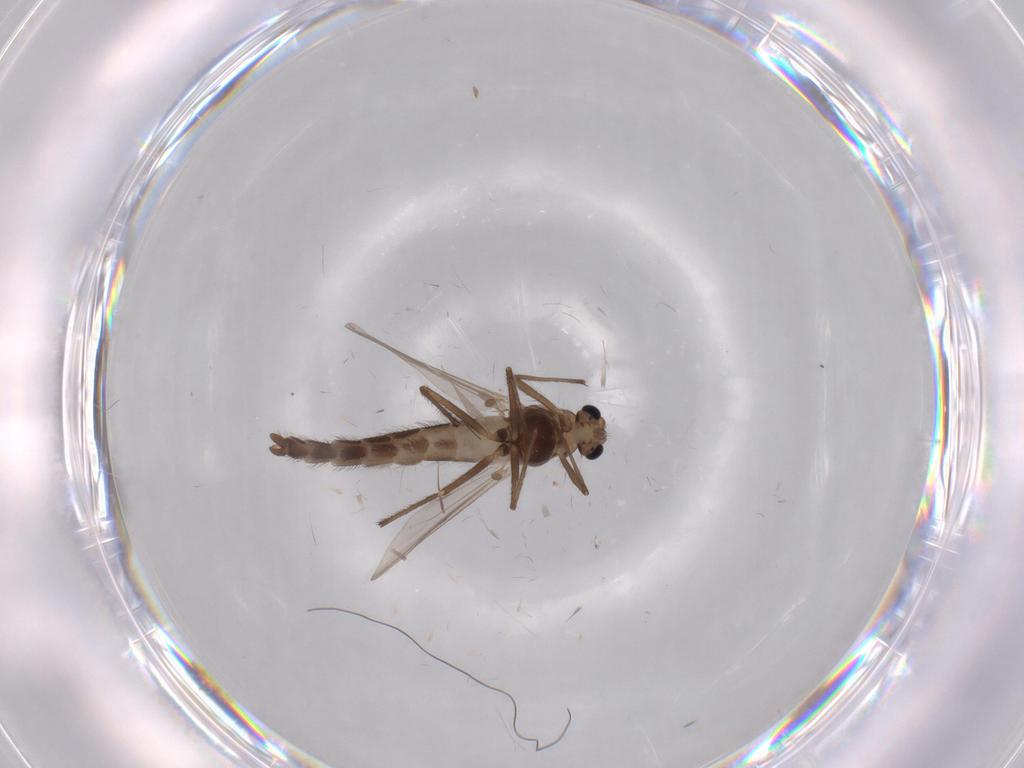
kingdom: Animalia
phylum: Arthropoda
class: Insecta
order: Diptera
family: Chironomidae
